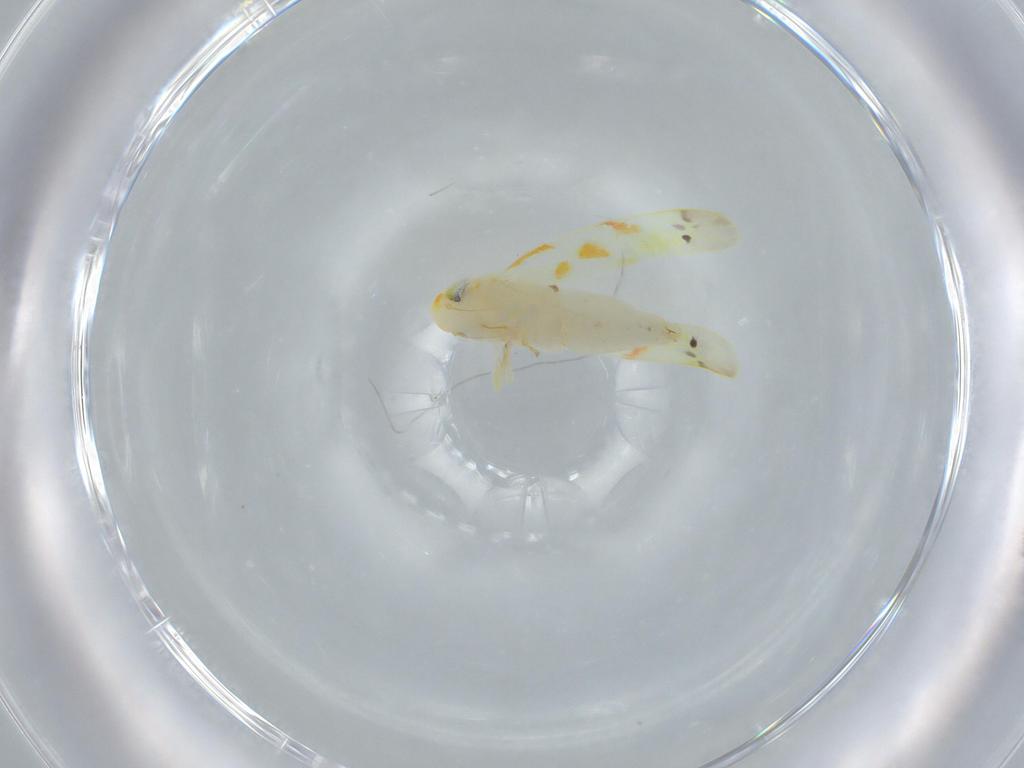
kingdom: Animalia
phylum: Arthropoda
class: Insecta
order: Hemiptera
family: Cicadellidae
